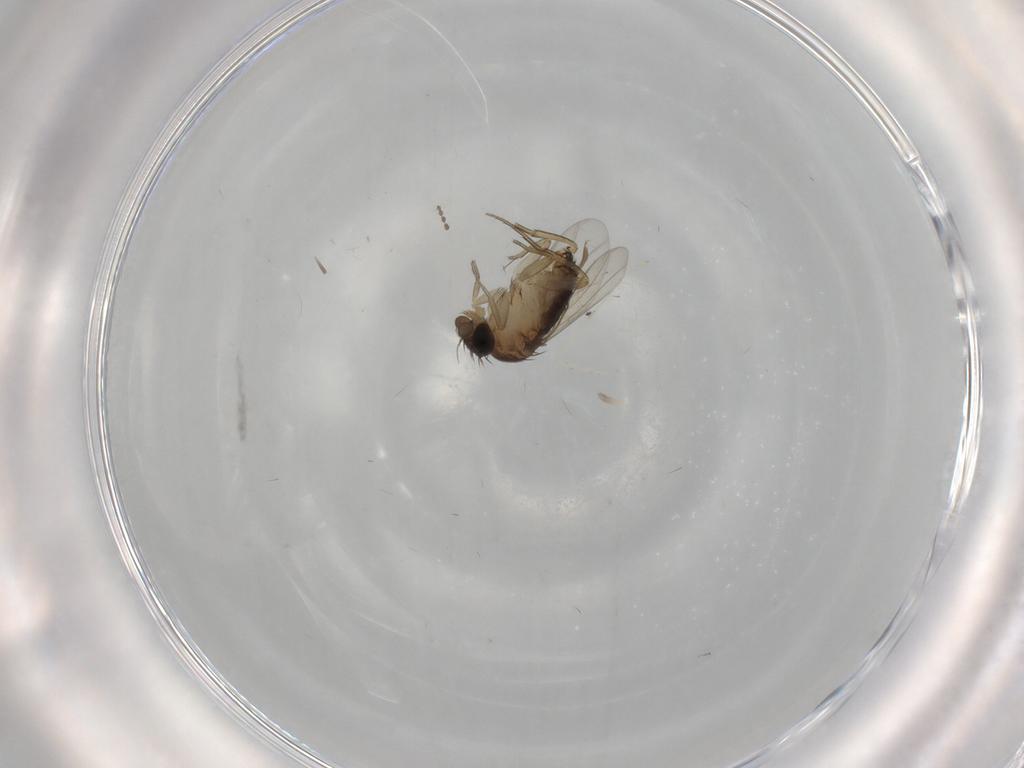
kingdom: Animalia
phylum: Arthropoda
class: Insecta
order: Diptera
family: Cecidomyiidae
